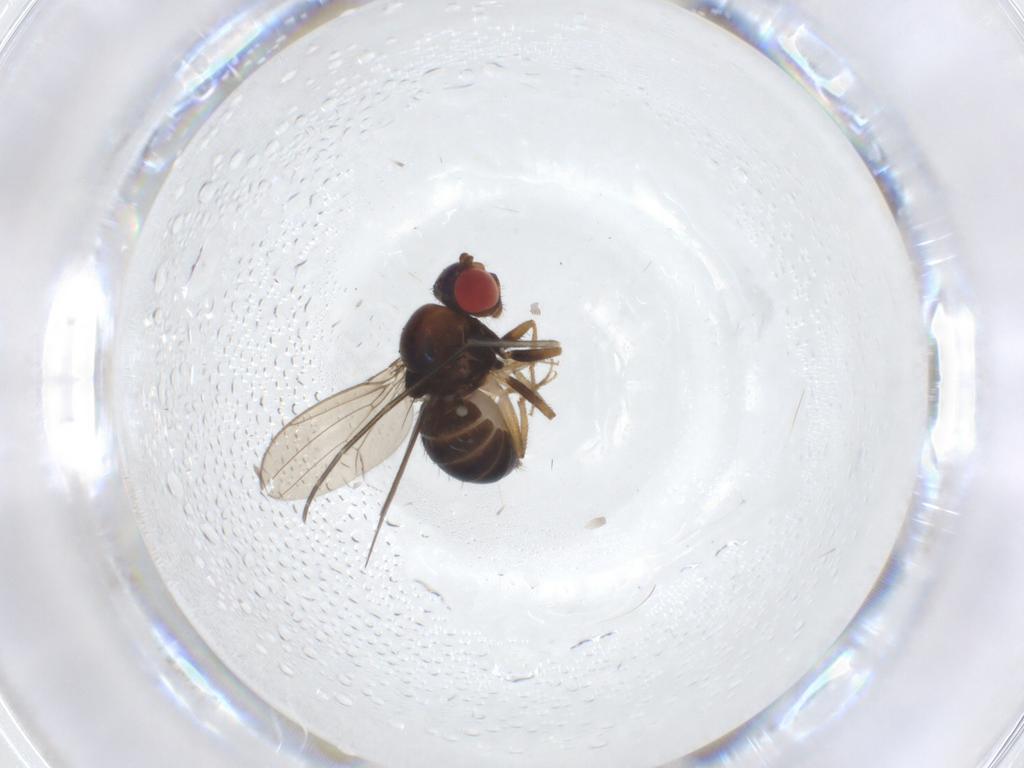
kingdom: Animalia
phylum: Arthropoda
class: Insecta
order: Diptera
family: Drosophilidae
